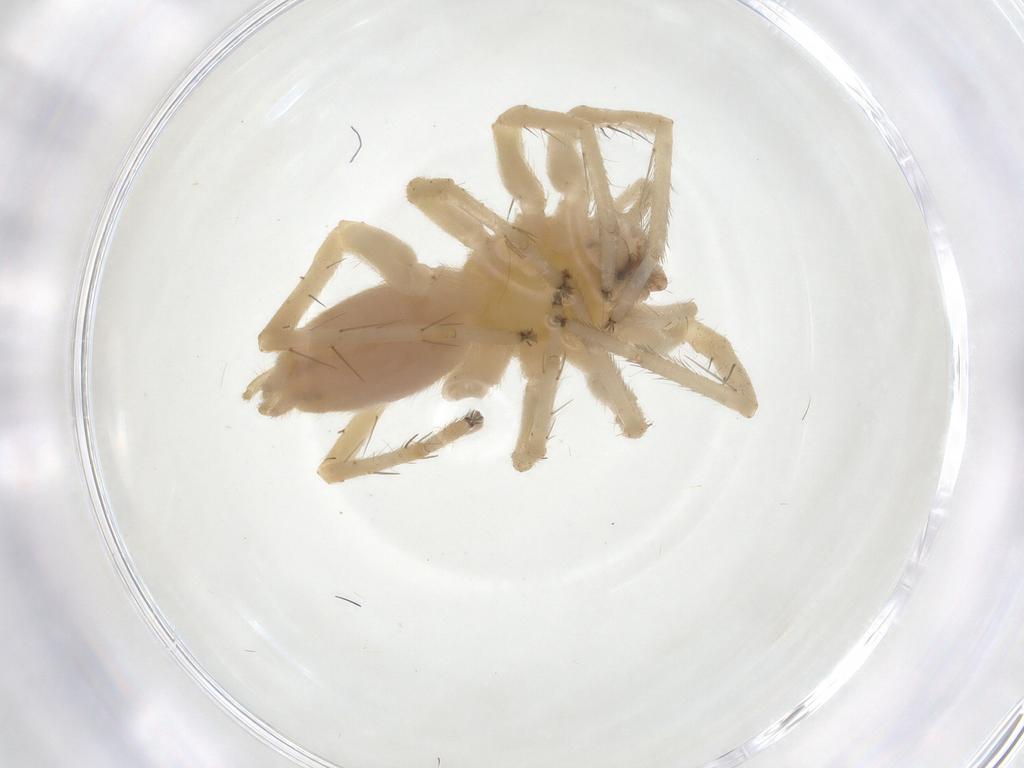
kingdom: Animalia
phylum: Arthropoda
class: Arachnida
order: Araneae
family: Anyphaenidae
